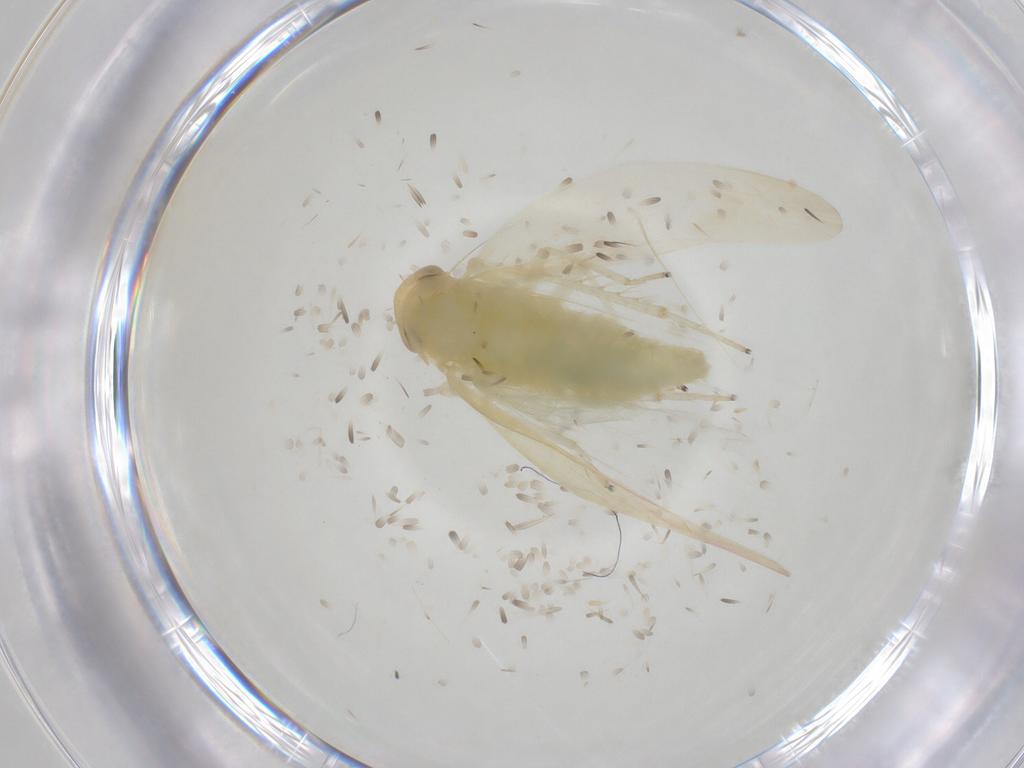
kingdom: Animalia
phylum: Arthropoda
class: Insecta
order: Hemiptera
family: Cicadellidae
